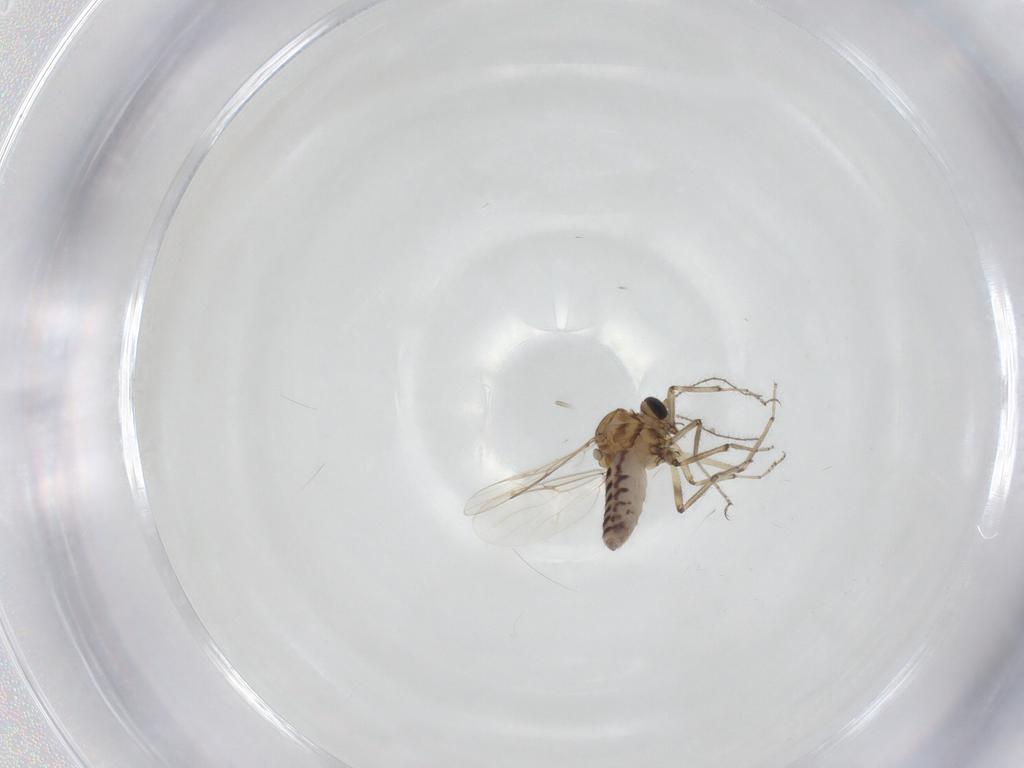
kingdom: Animalia
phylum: Arthropoda
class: Insecta
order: Diptera
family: Ceratopogonidae
